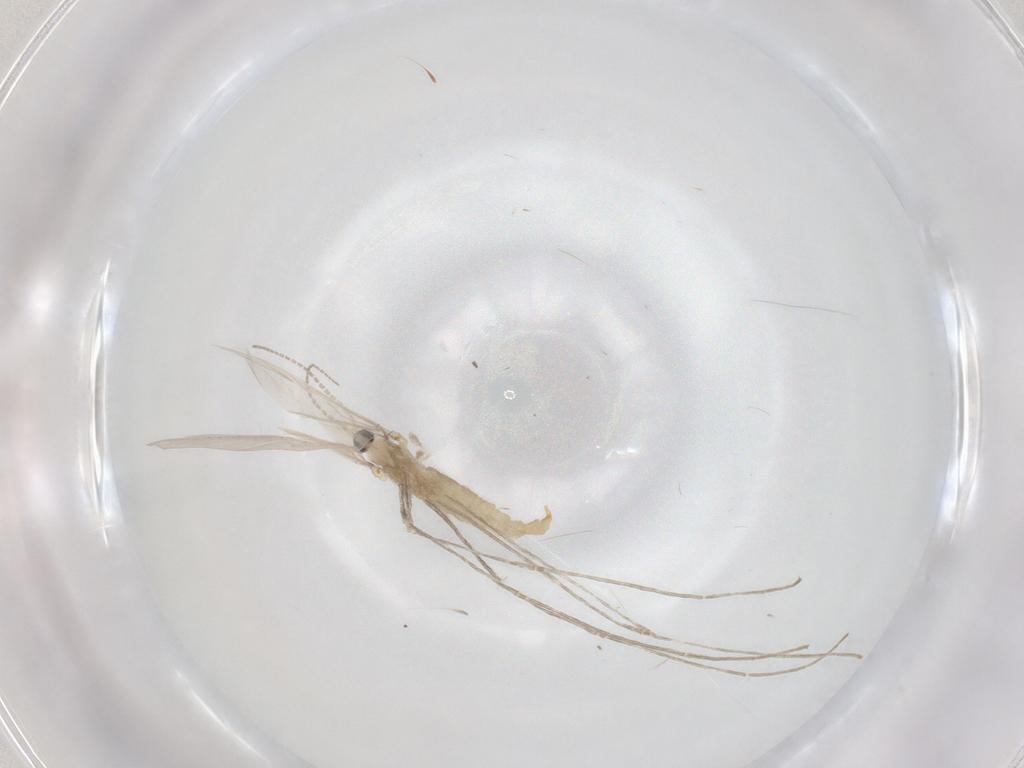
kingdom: Animalia
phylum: Arthropoda
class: Insecta
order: Diptera
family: Cecidomyiidae
